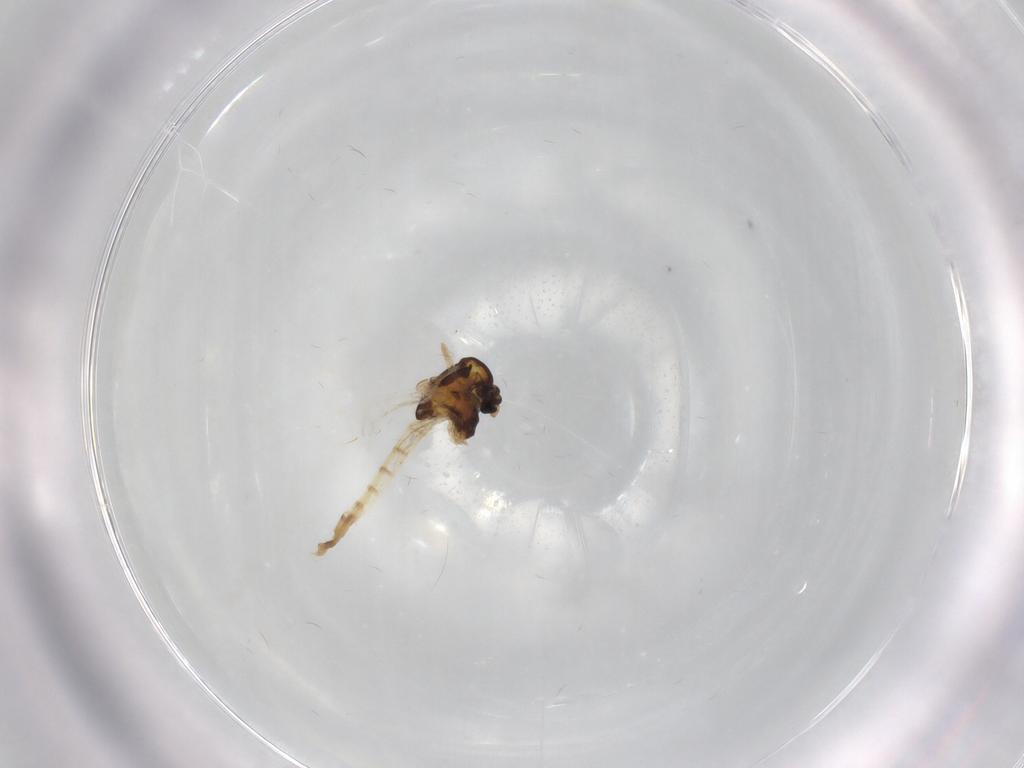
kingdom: Animalia
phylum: Arthropoda
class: Insecta
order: Diptera
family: Chironomidae
